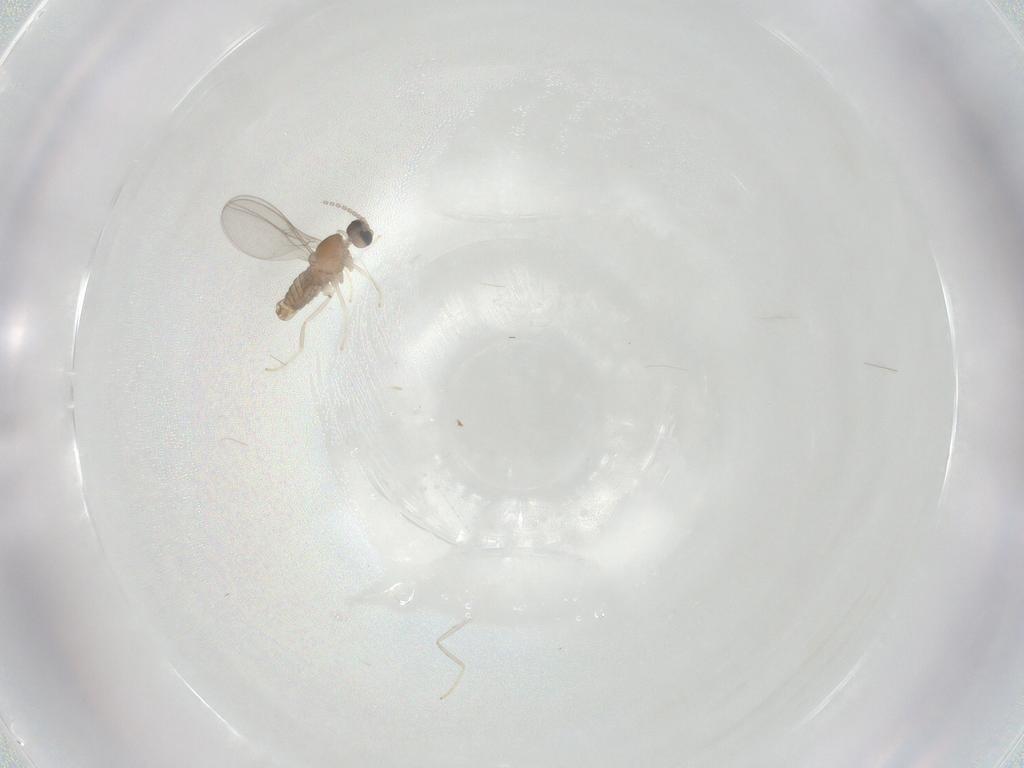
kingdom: Animalia
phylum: Arthropoda
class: Insecta
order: Diptera
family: Cecidomyiidae
